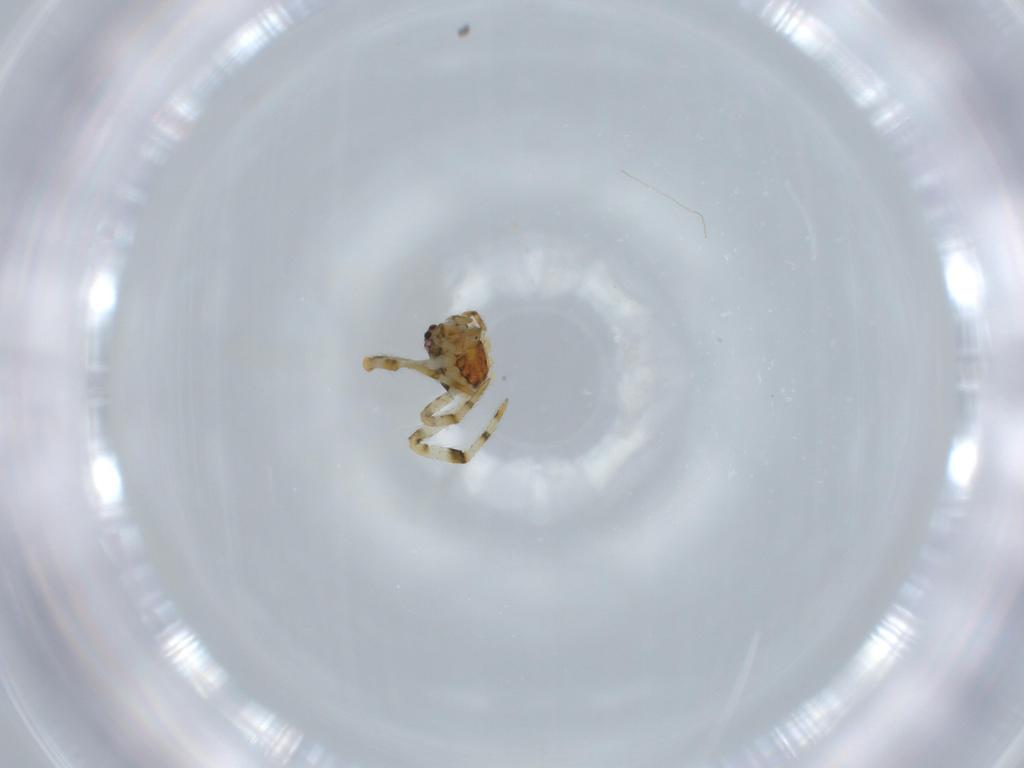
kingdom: Animalia
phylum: Arthropoda
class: Arachnida
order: Araneae
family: Theridiidae
